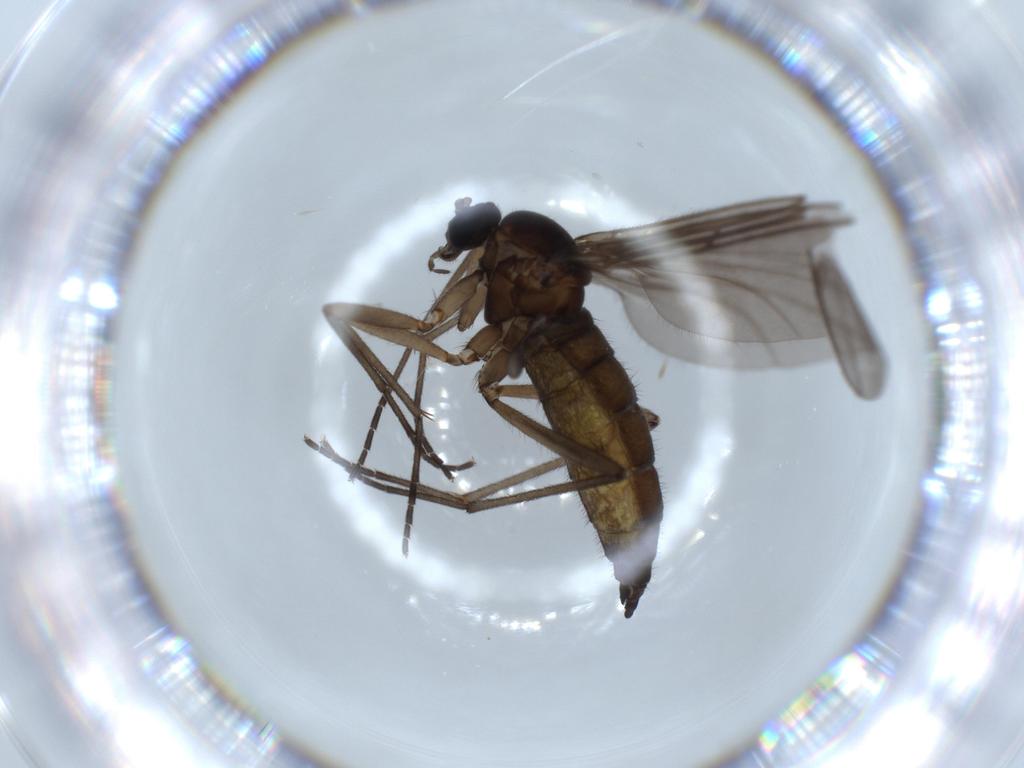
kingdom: Animalia
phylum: Arthropoda
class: Insecta
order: Diptera
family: Sciaridae
